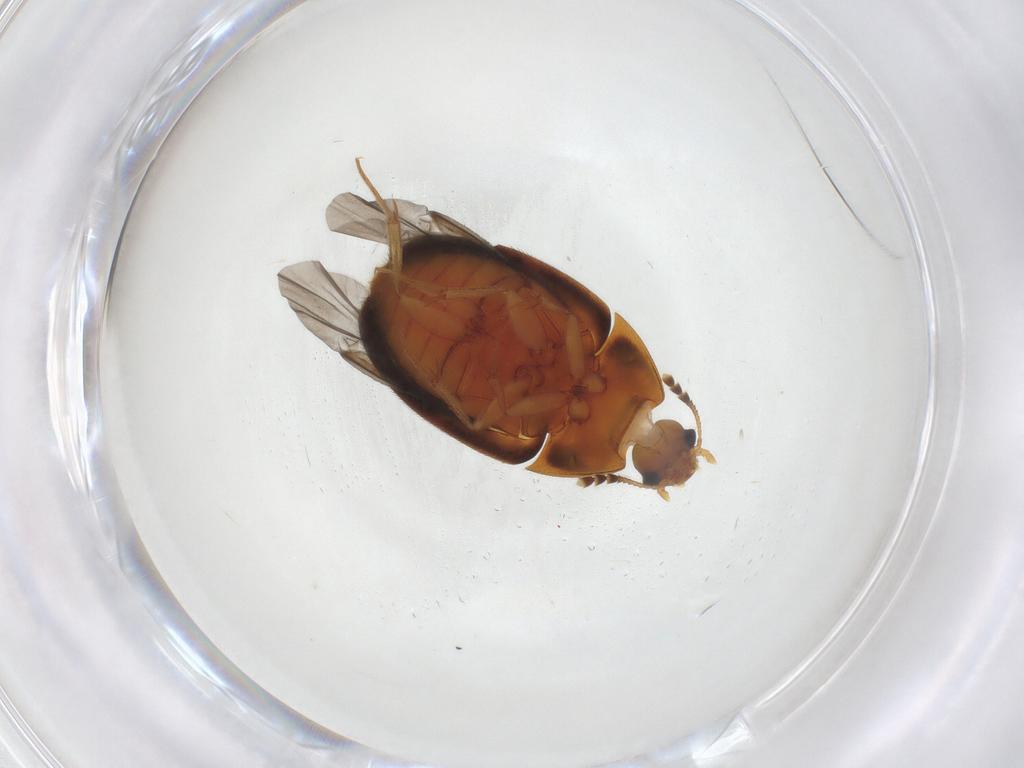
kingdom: Animalia
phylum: Arthropoda
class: Insecta
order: Coleoptera
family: Mycetophagidae
